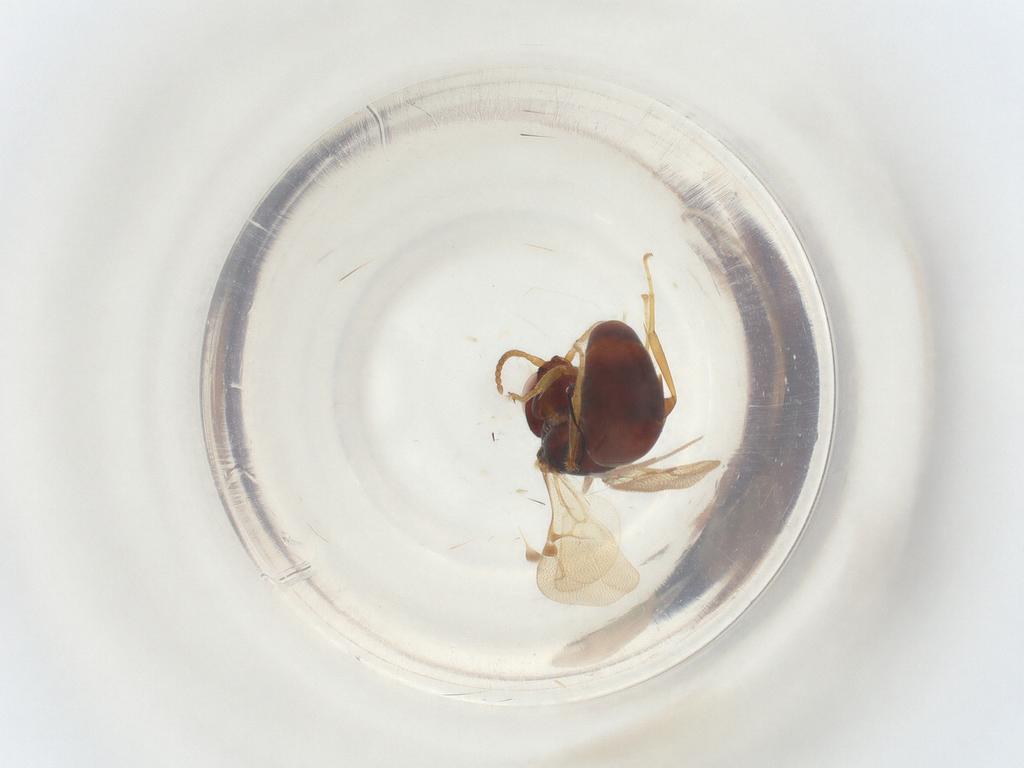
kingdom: Animalia
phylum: Arthropoda
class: Insecta
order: Hymenoptera
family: Bethylidae
